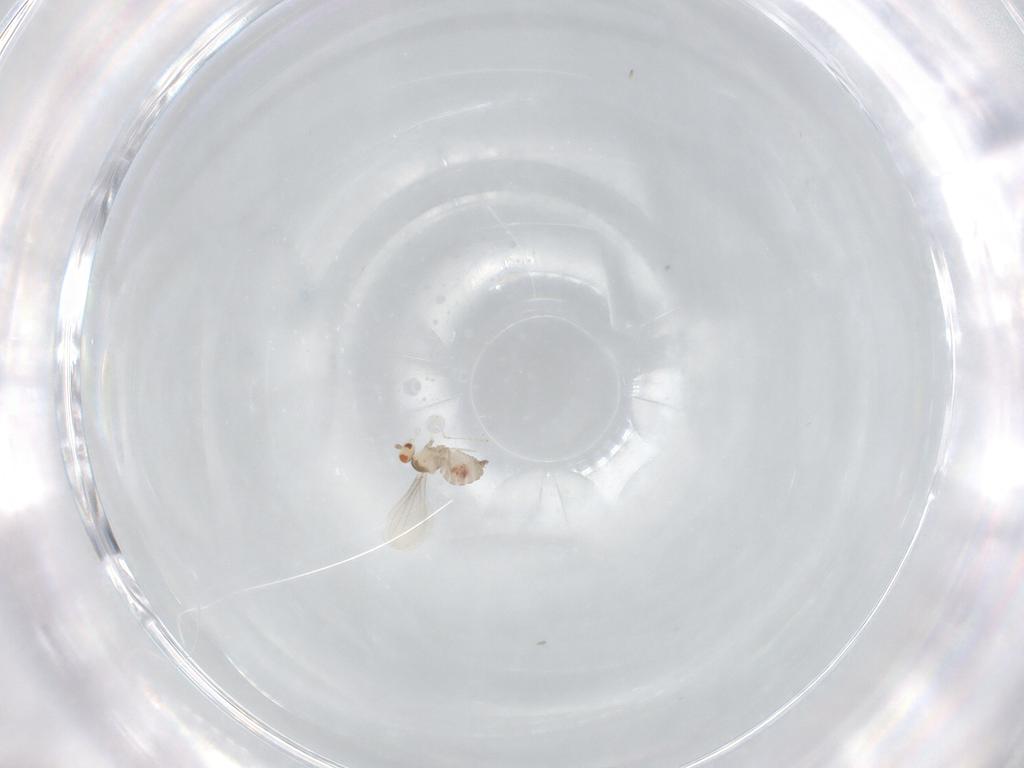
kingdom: Animalia
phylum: Arthropoda
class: Insecta
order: Diptera
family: Cecidomyiidae
